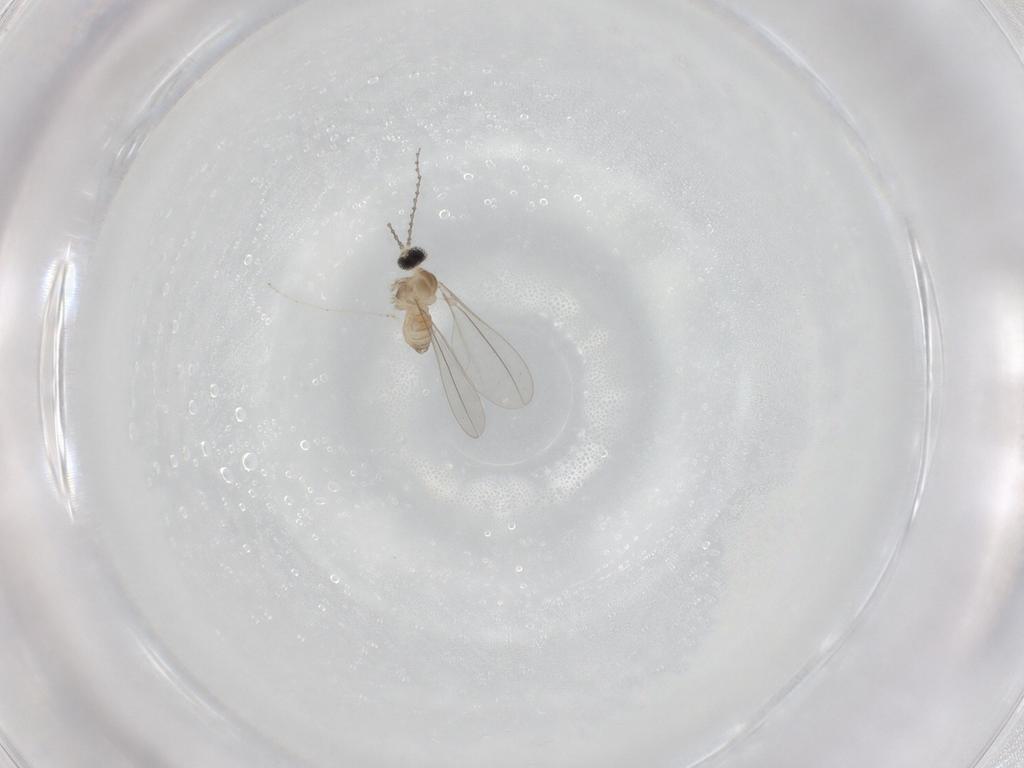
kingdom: Animalia
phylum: Arthropoda
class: Insecta
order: Diptera
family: Cecidomyiidae
